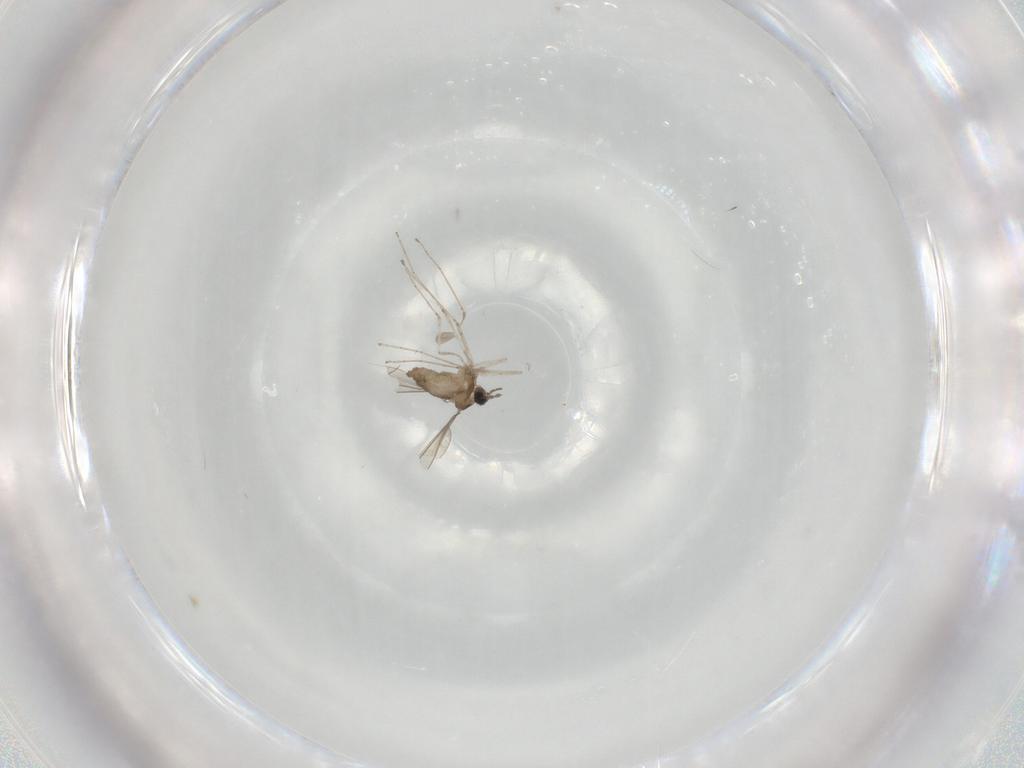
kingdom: Animalia
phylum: Arthropoda
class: Insecta
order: Diptera
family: Cecidomyiidae
